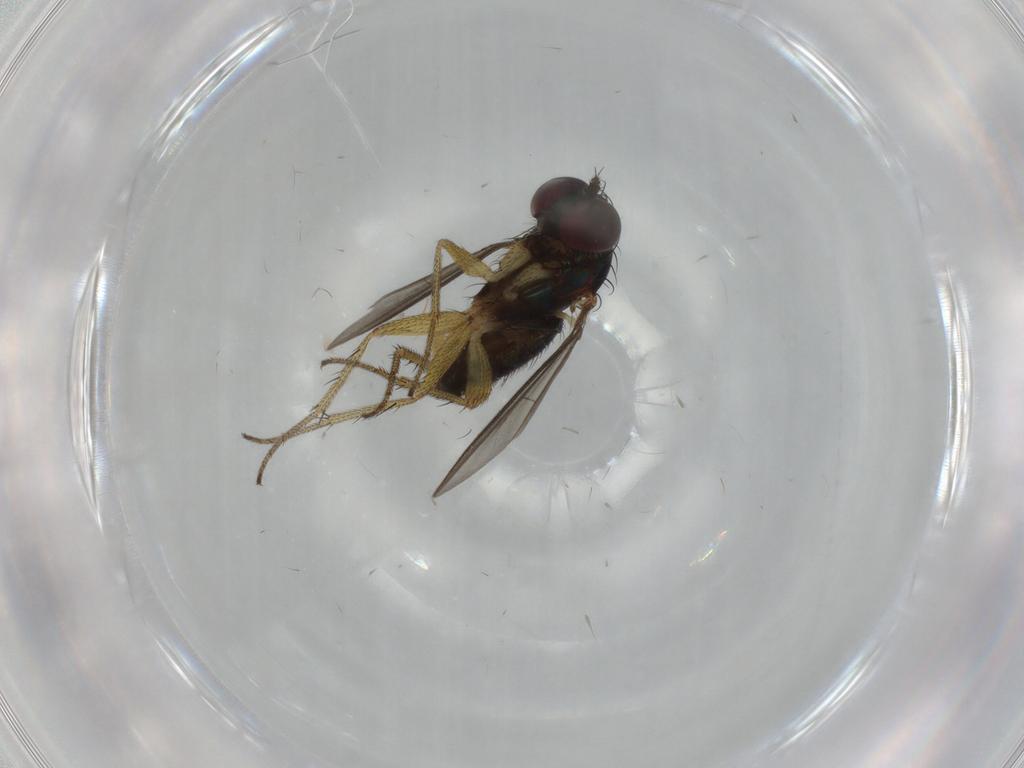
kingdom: Animalia
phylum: Arthropoda
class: Insecta
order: Diptera
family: Dolichopodidae
